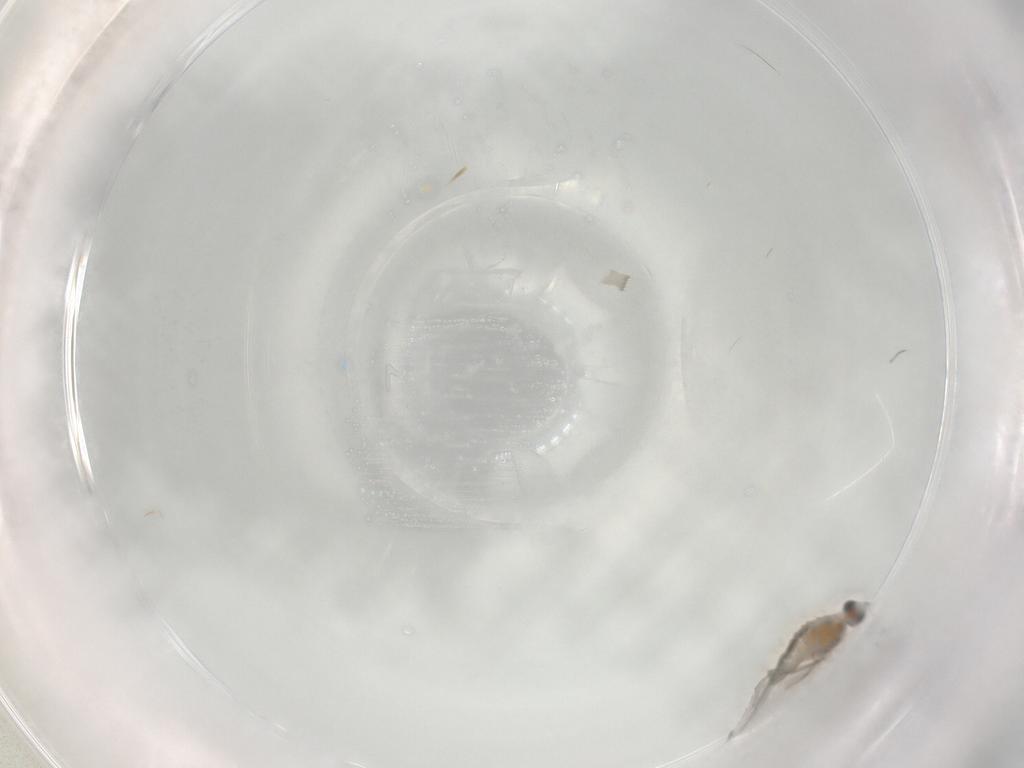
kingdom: Animalia
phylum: Arthropoda
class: Insecta
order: Diptera
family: Cecidomyiidae
